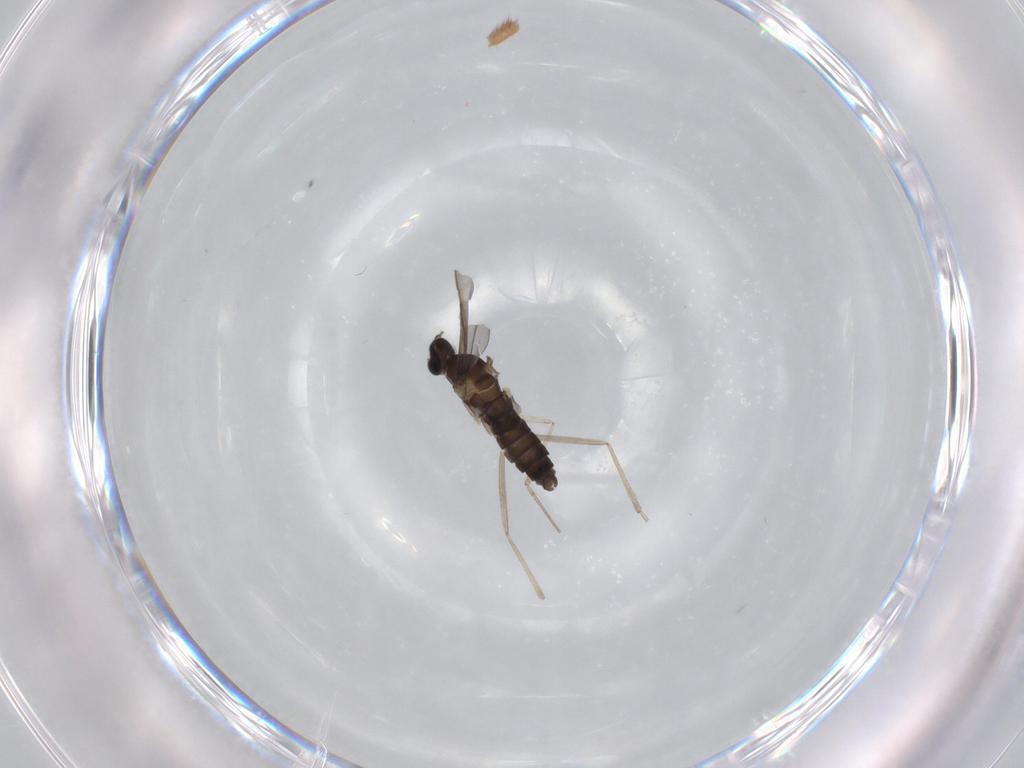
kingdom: Animalia
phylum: Arthropoda
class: Insecta
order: Diptera
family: Cecidomyiidae
